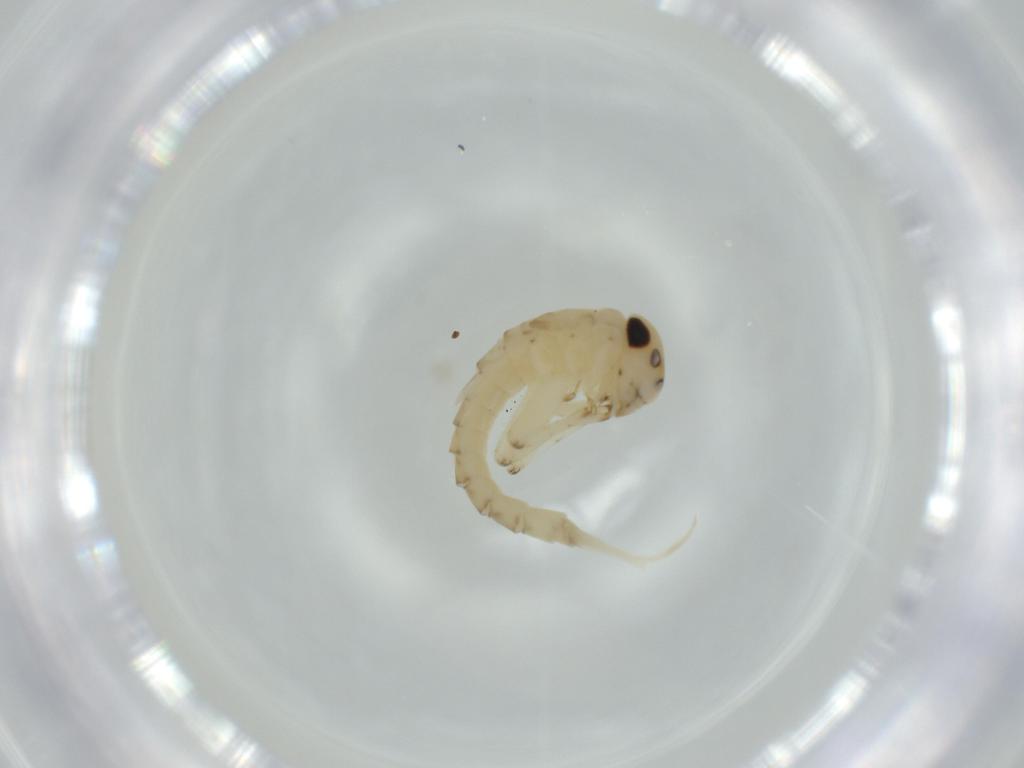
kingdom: Animalia
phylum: Arthropoda
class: Insecta
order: Ephemeroptera
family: Baetidae
